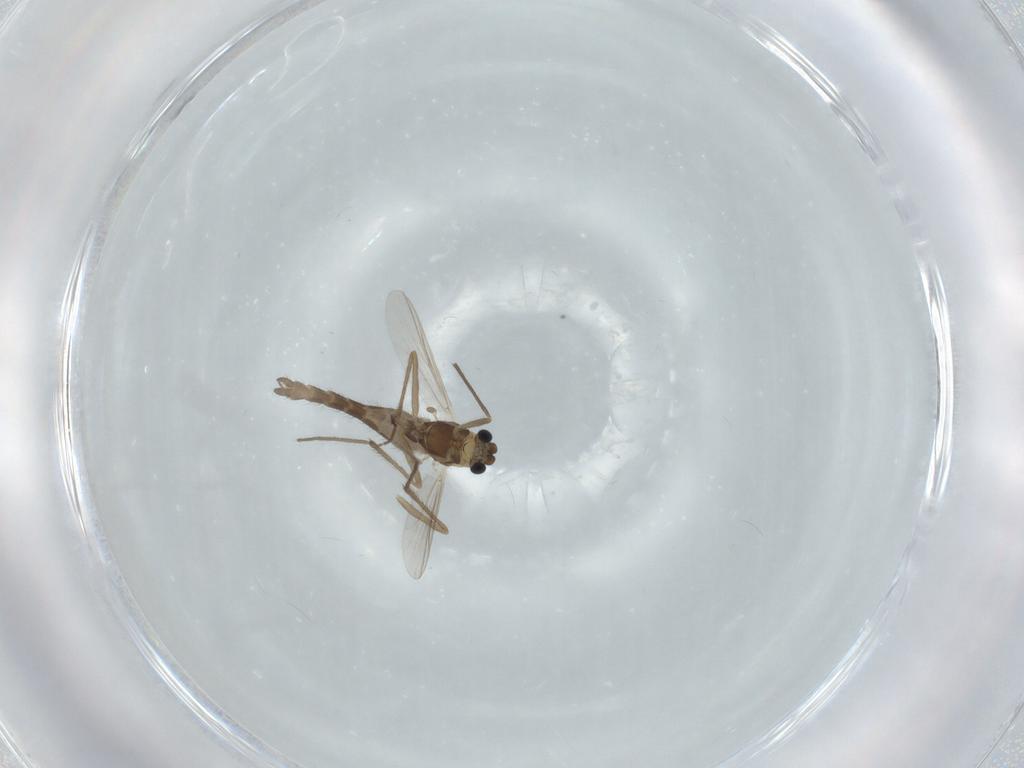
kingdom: Animalia
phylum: Arthropoda
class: Insecta
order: Diptera
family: Chironomidae
